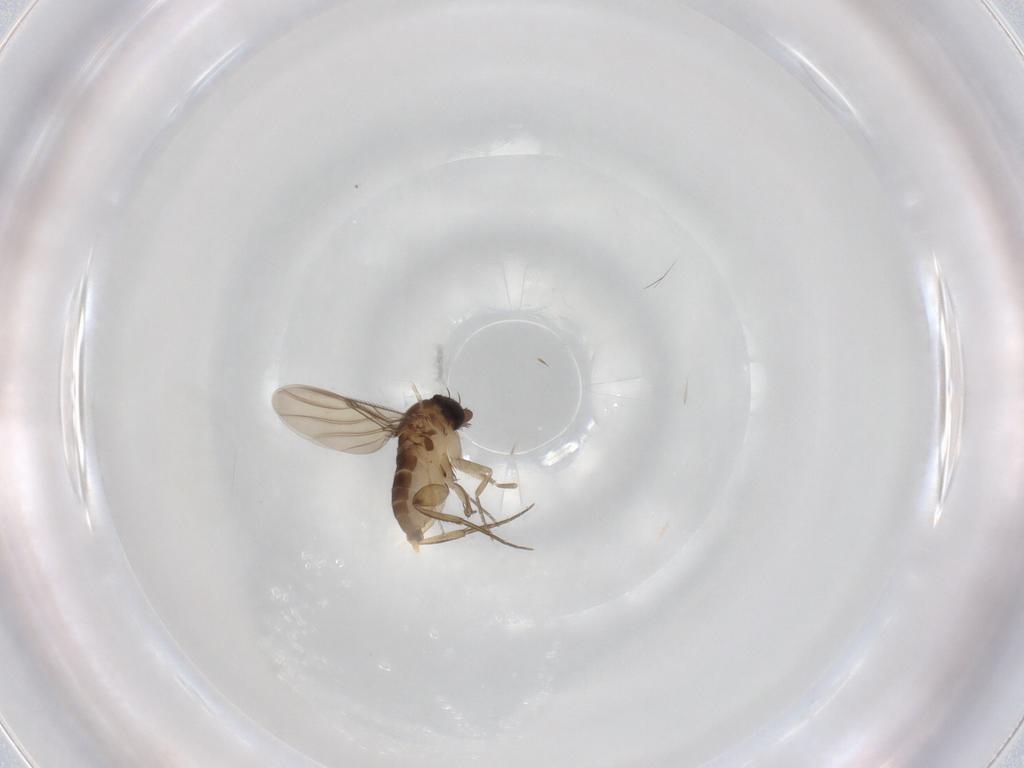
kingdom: Animalia
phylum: Arthropoda
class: Insecta
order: Diptera
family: Phoridae
